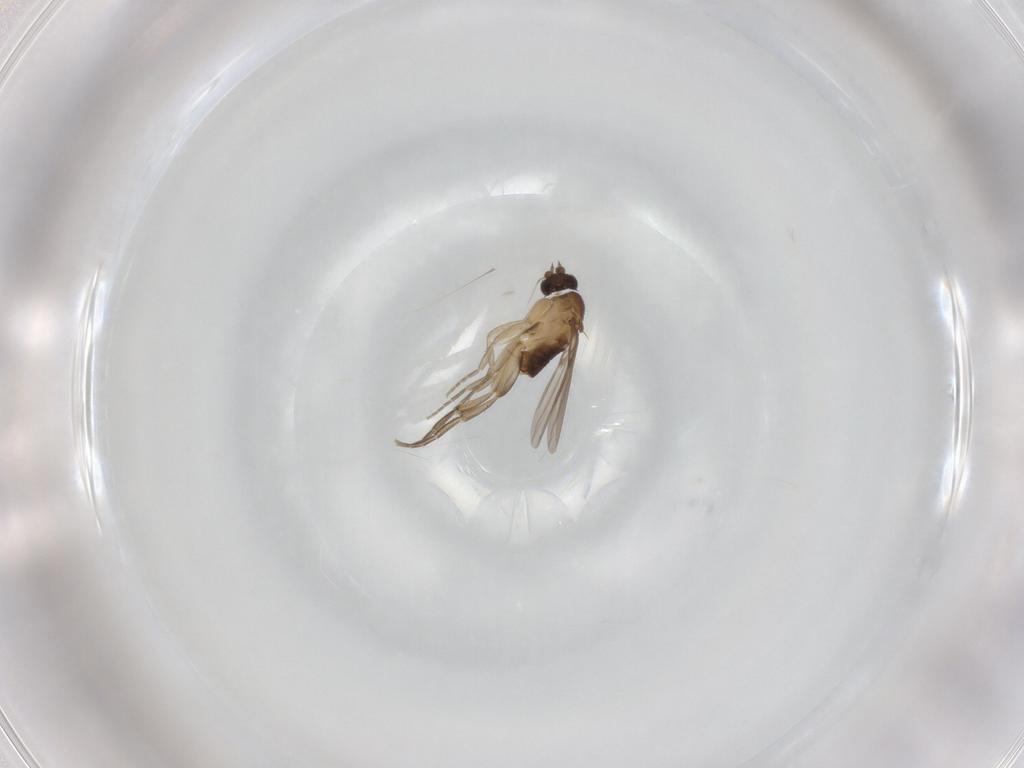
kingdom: Animalia
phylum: Arthropoda
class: Insecta
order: Diptera
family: Phoridae
